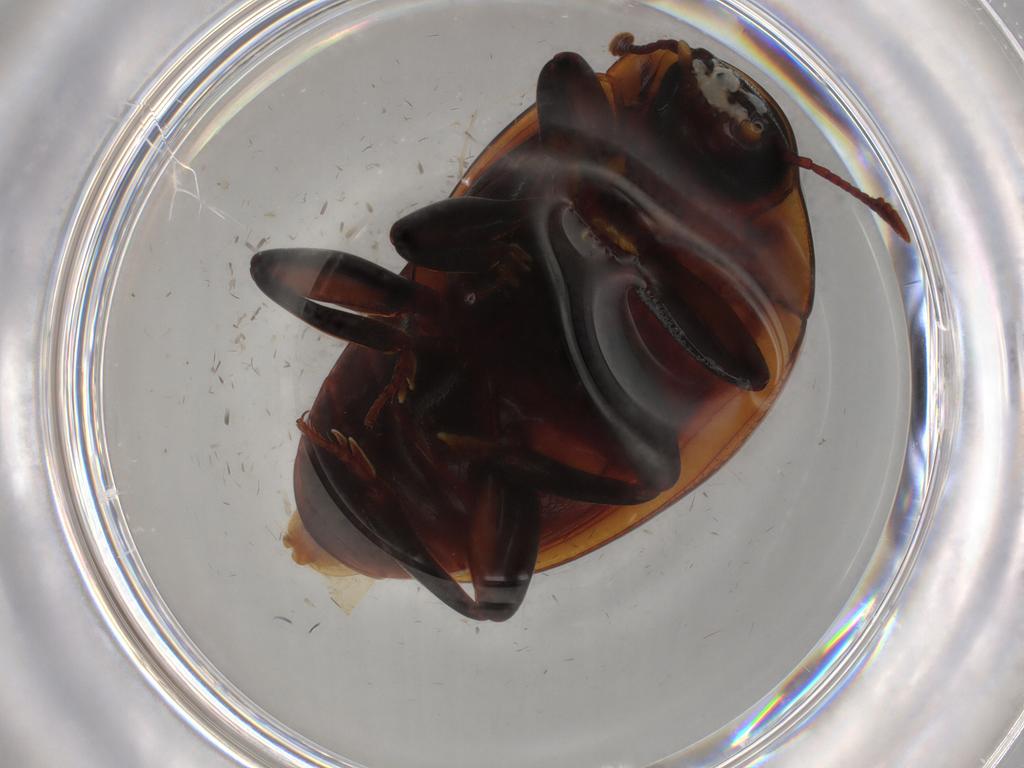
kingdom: Animalia
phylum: Arthropoda
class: Insecta
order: Coleoptera
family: Zopheridae
